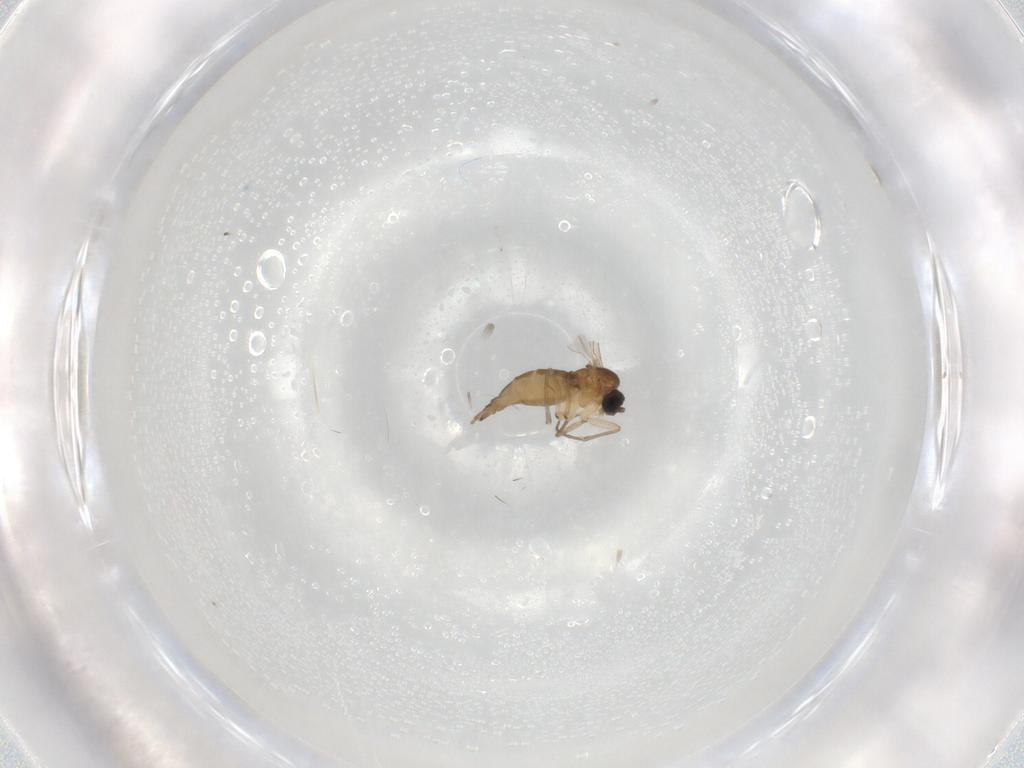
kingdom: Animalia
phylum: Arthropoda
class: Insecta
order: Diptera
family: Sciaridae
